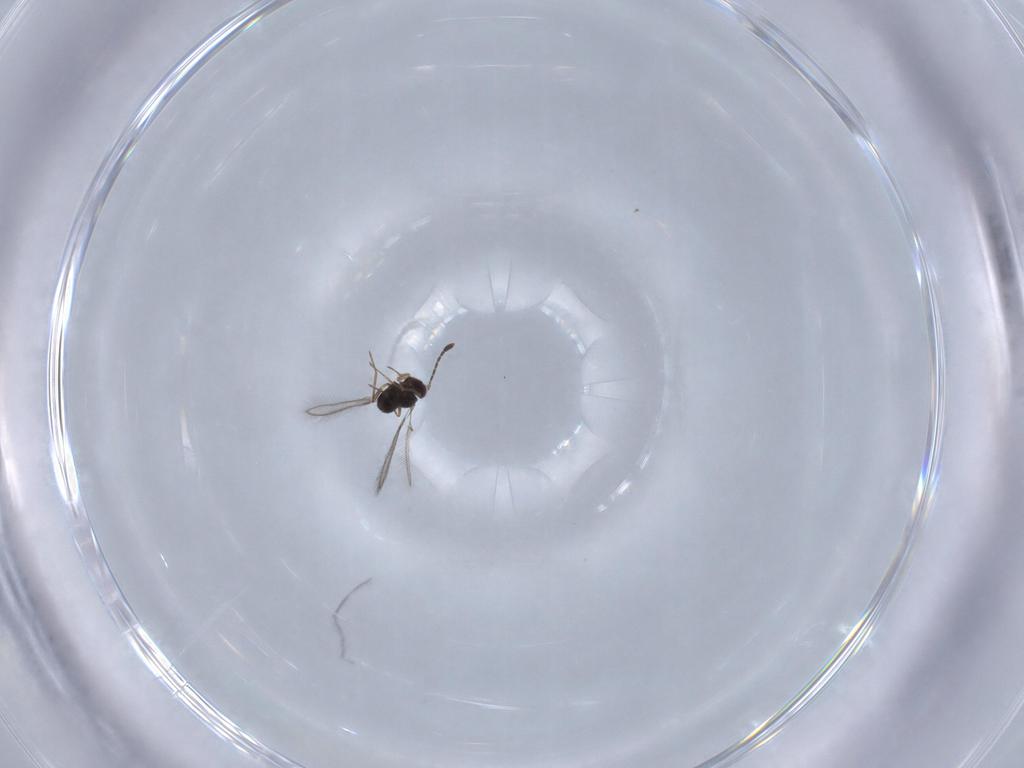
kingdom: Animalia
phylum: Arthropoda
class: Insecta
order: Hymenoptera
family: Mymaridae
